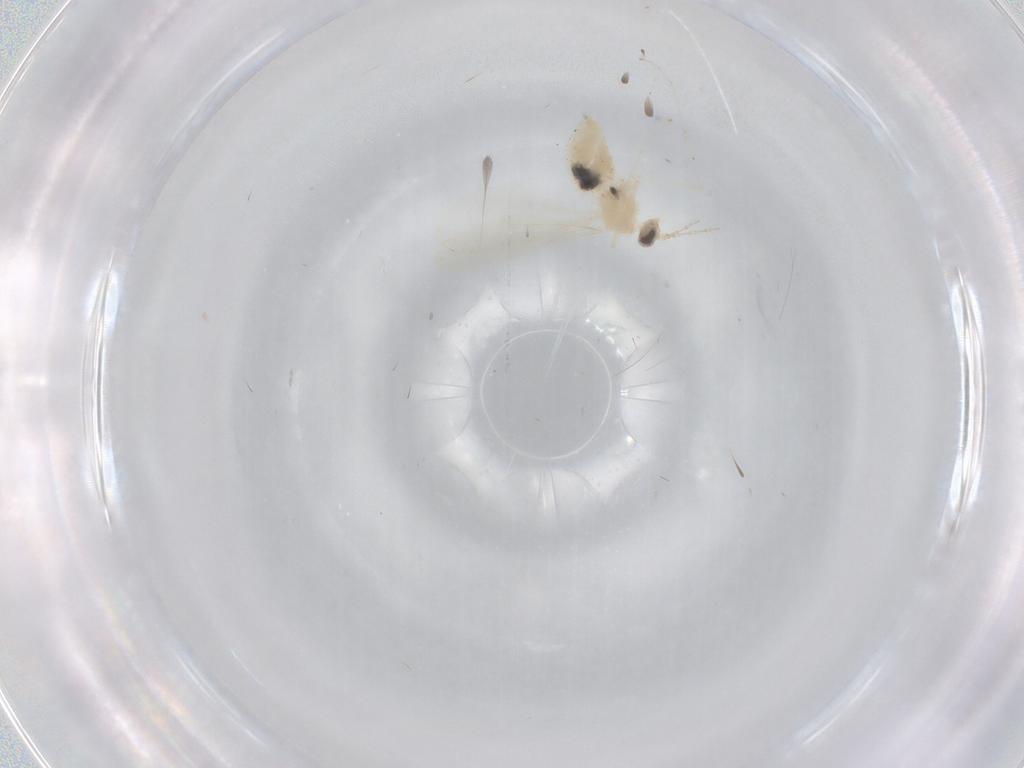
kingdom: Animalia
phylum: Arthropoda
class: Insecta
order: Diptera
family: Cecidomyiidae
